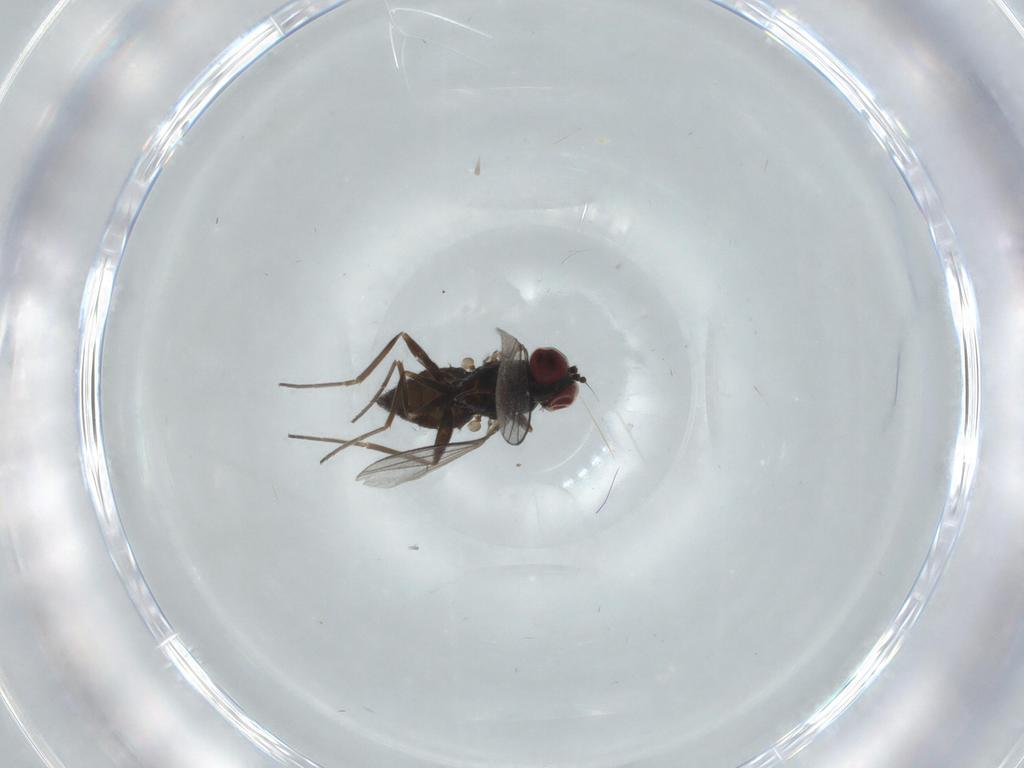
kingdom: Animalia
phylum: Arthropoda
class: Insecta
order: Diptera
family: Dolichopodidae
